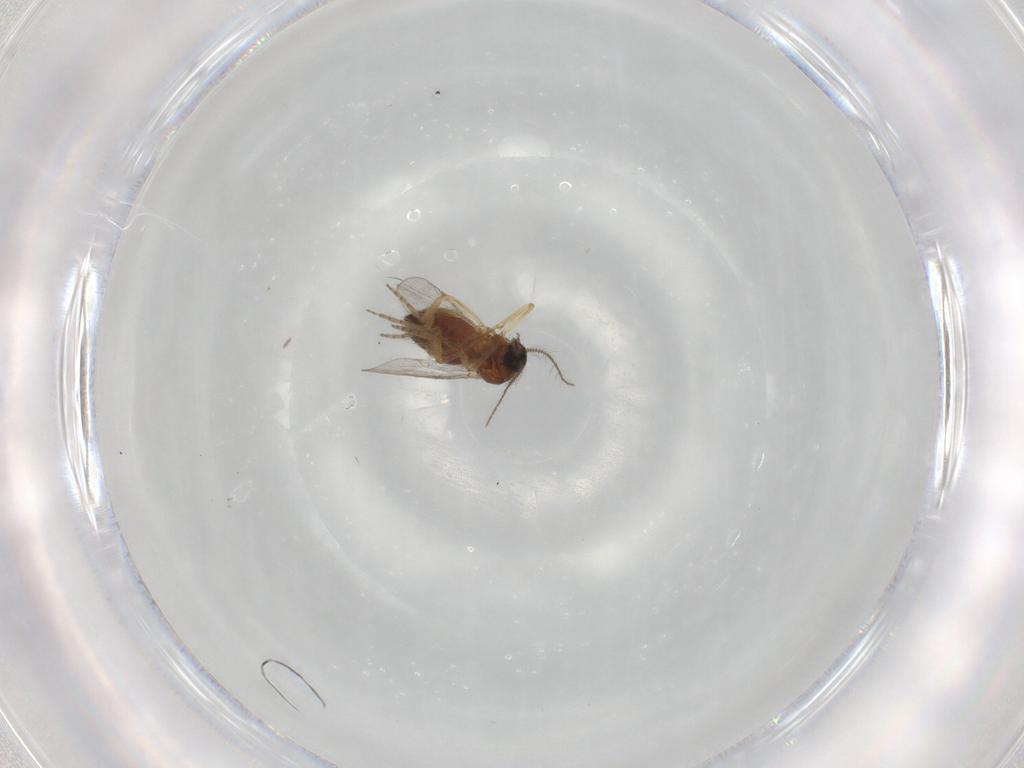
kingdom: Animalia
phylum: Arthropoda
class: Insecta
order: Diptera
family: Ceratopogonidae
